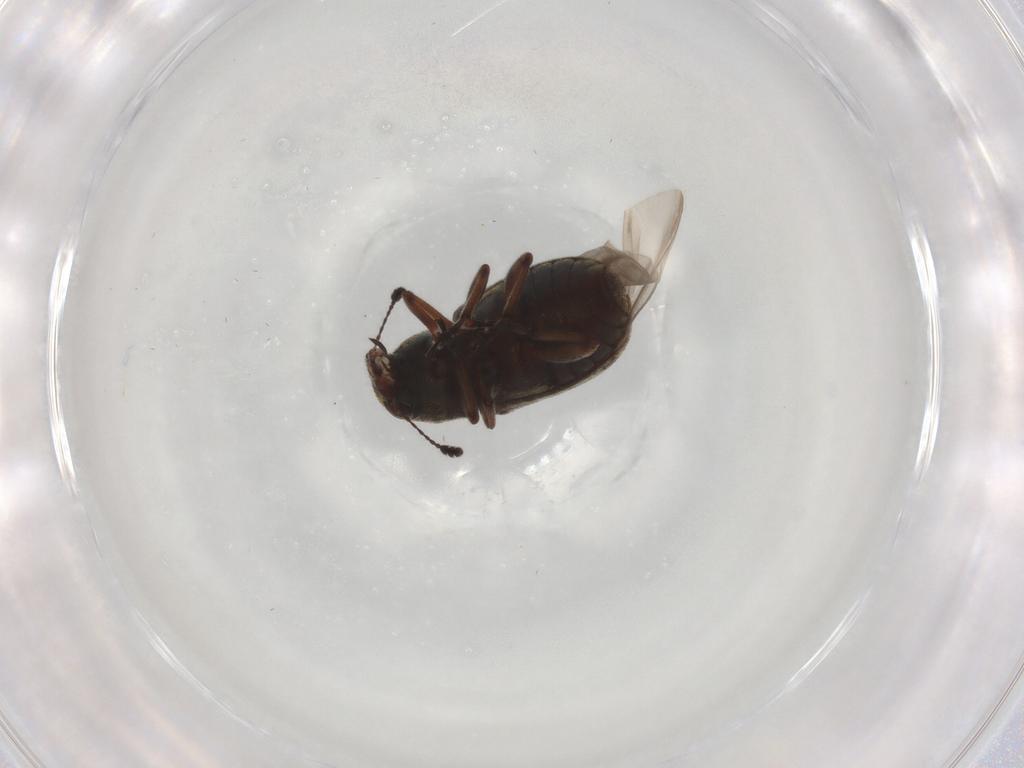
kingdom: Animalia
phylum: Arthropoda
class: Insecta
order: Coleoptera
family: Anthribidae
